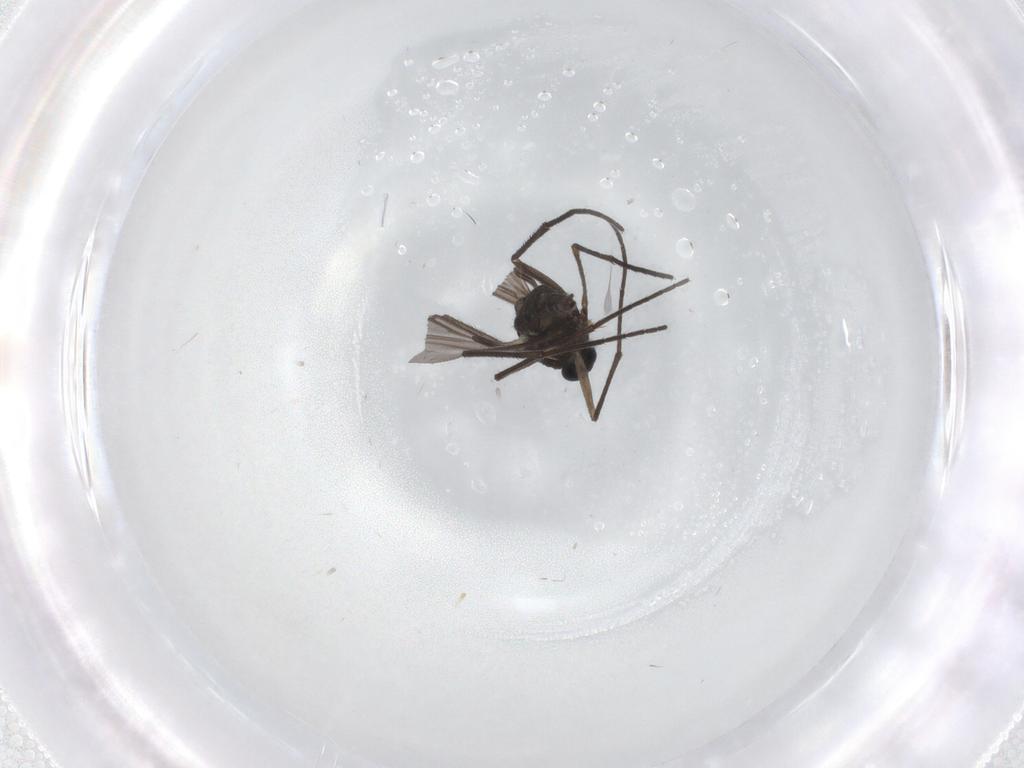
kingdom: Animalia
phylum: Arthropoda
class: Insecta
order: Diptera
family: Sciaridae
